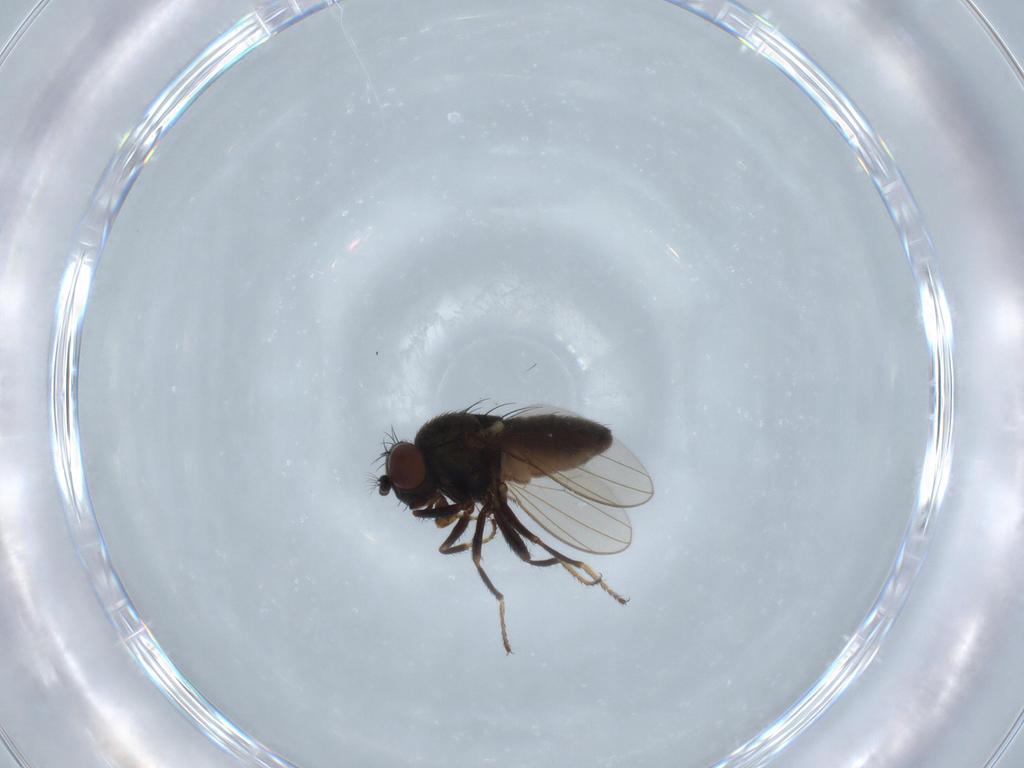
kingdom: Animalia
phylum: Arthropoda
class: Insecta
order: Diptera
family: Ephydridae
